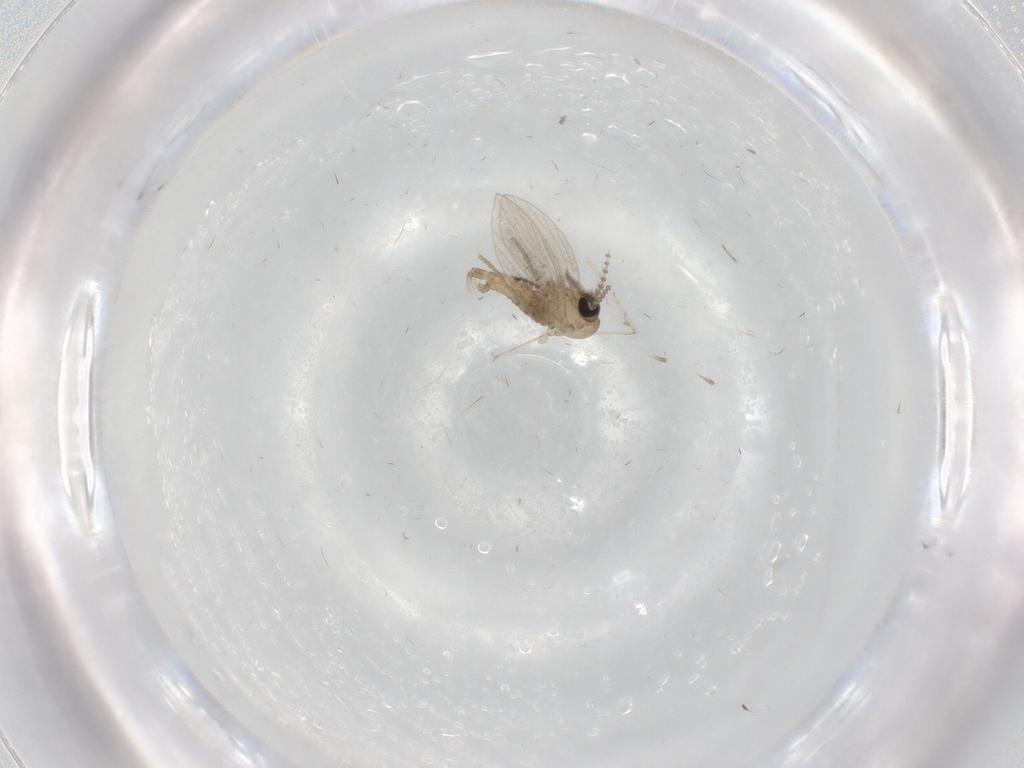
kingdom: Animalia
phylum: Arthropoda
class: Insecta
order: Diptera
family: Psychodidae
